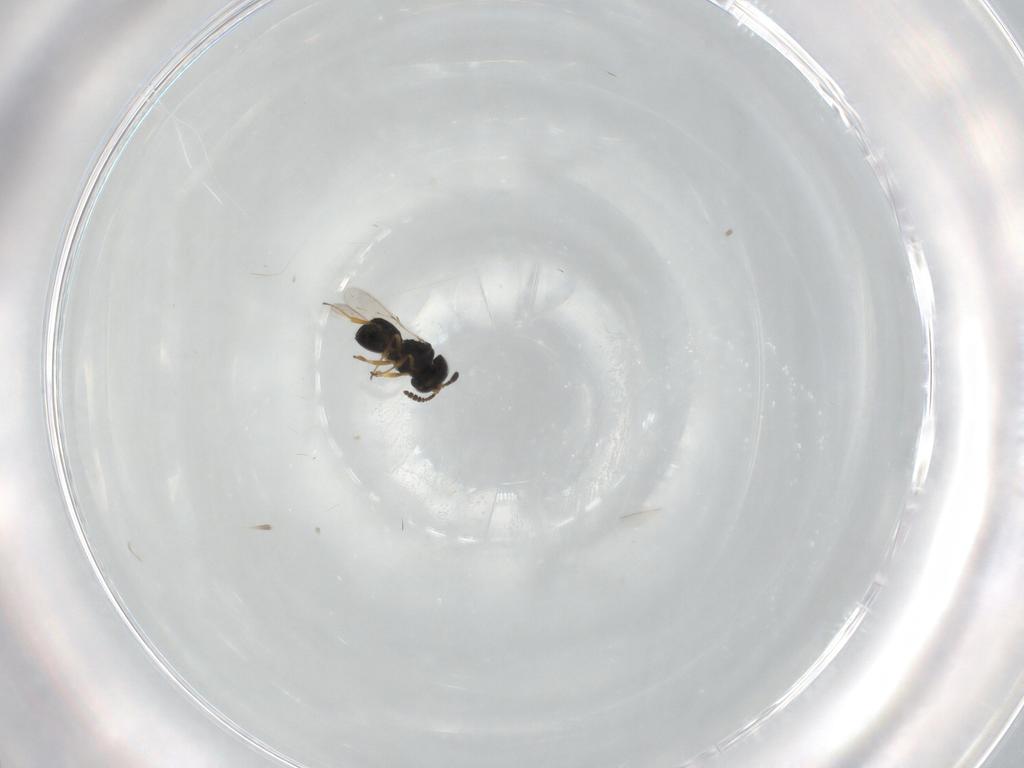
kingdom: Animalia
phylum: Arthropoda
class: Insecta
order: Hymenoptera
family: Scelionidae
